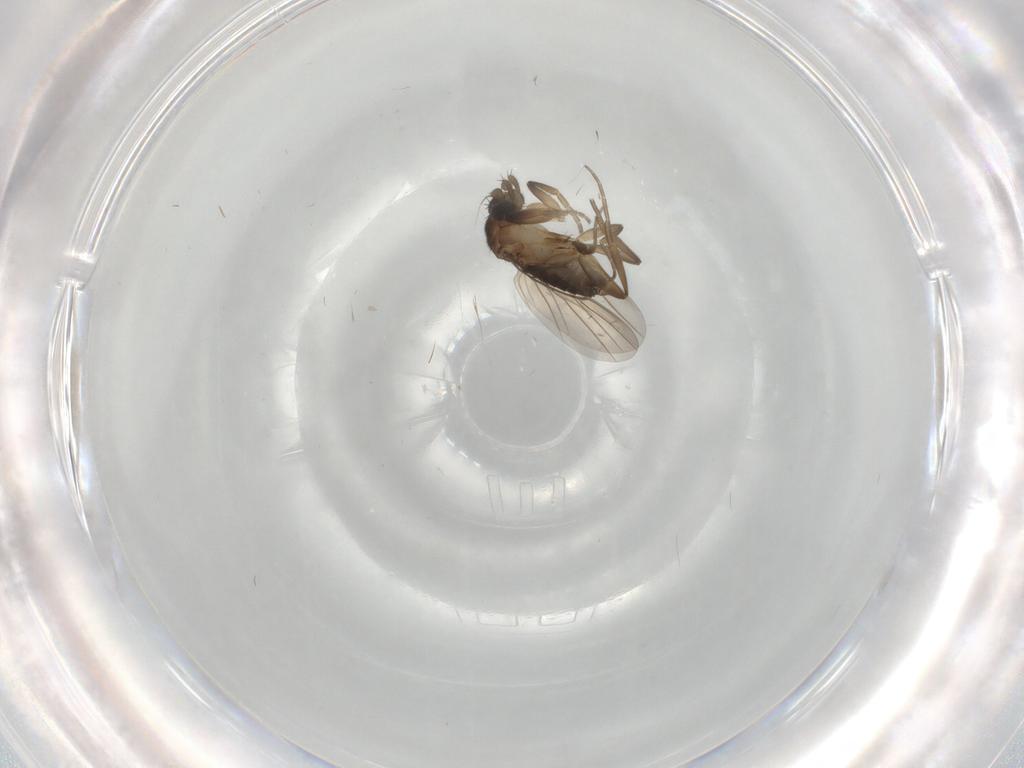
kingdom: Animalia
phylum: Arthropoda
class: Insecta
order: Diptera
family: Phoridae
